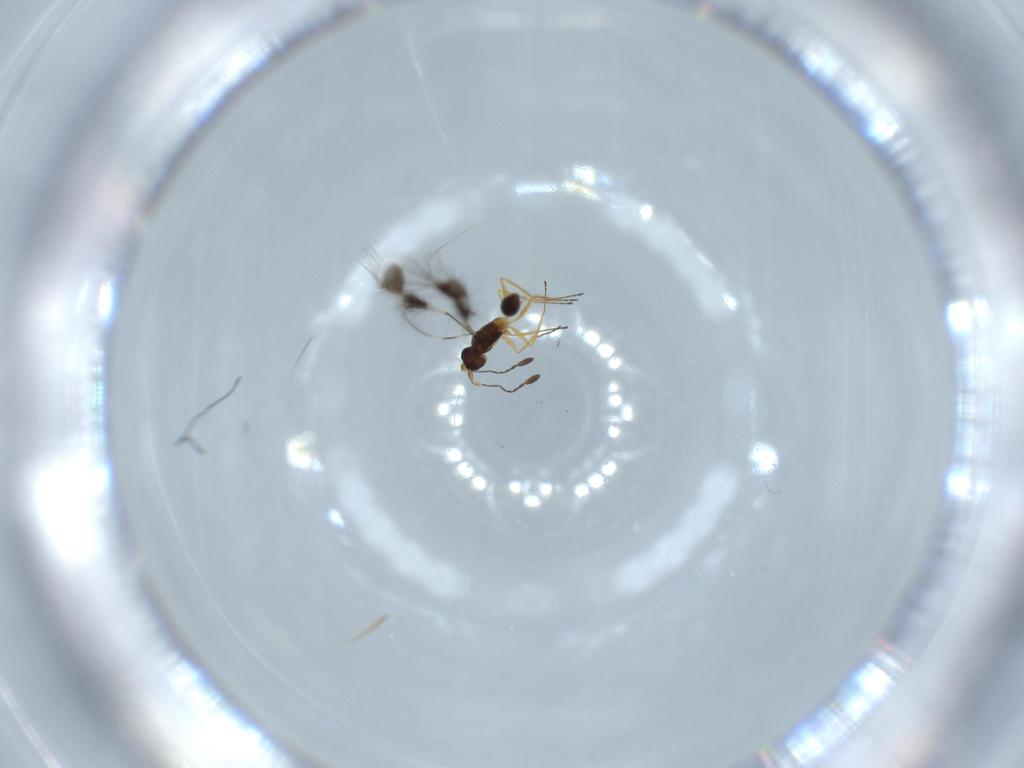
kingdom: Animalia
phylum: Arthropoda
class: Insecta
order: Hymenoptera
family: Mymaridae
